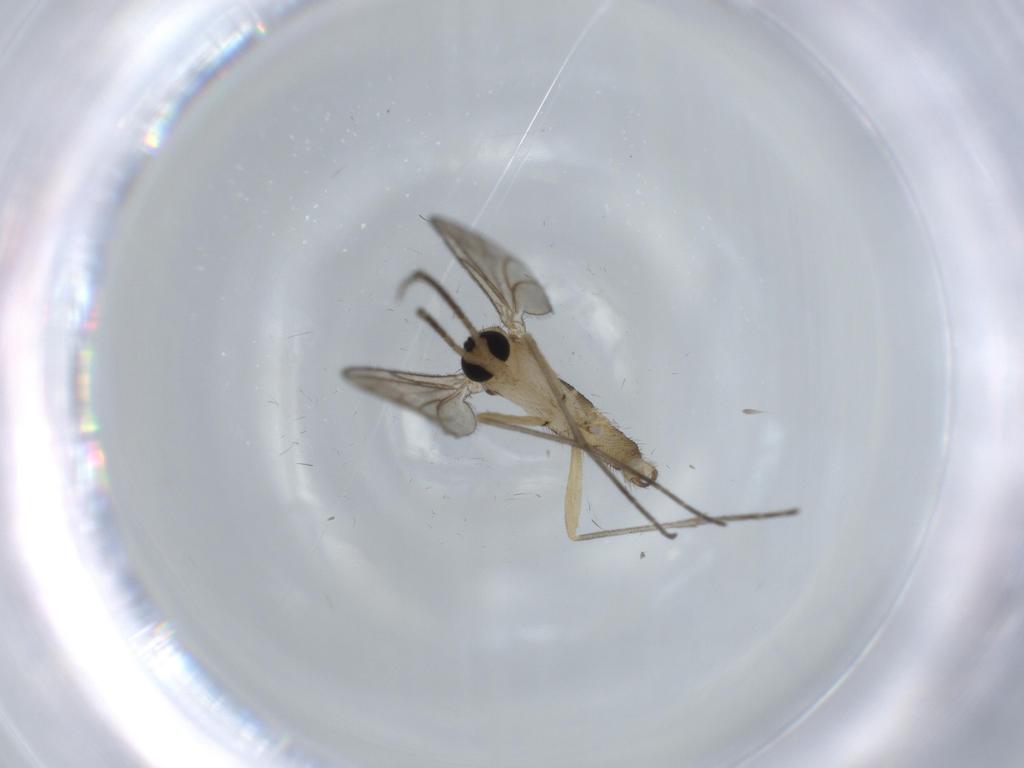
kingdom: Animalia
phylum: Arthropoda
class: Insecta
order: Diptera
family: Sciaridae
